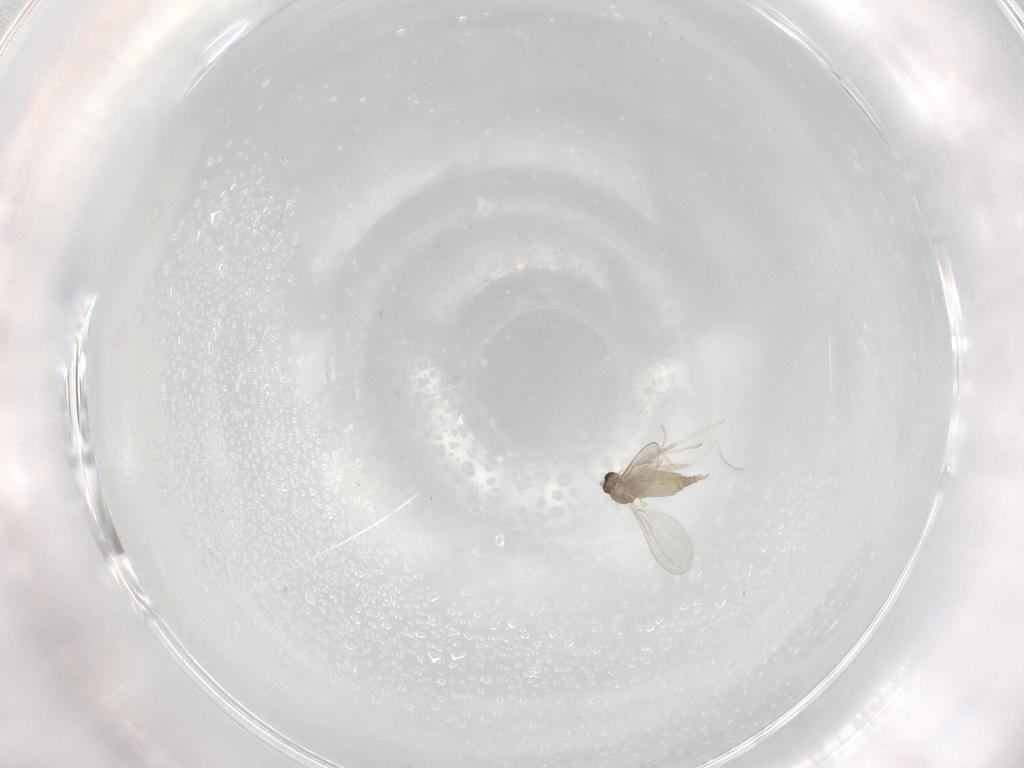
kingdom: Animalia
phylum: Arthropoda
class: Insecta
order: Diptera
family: Cecidomyiidae
